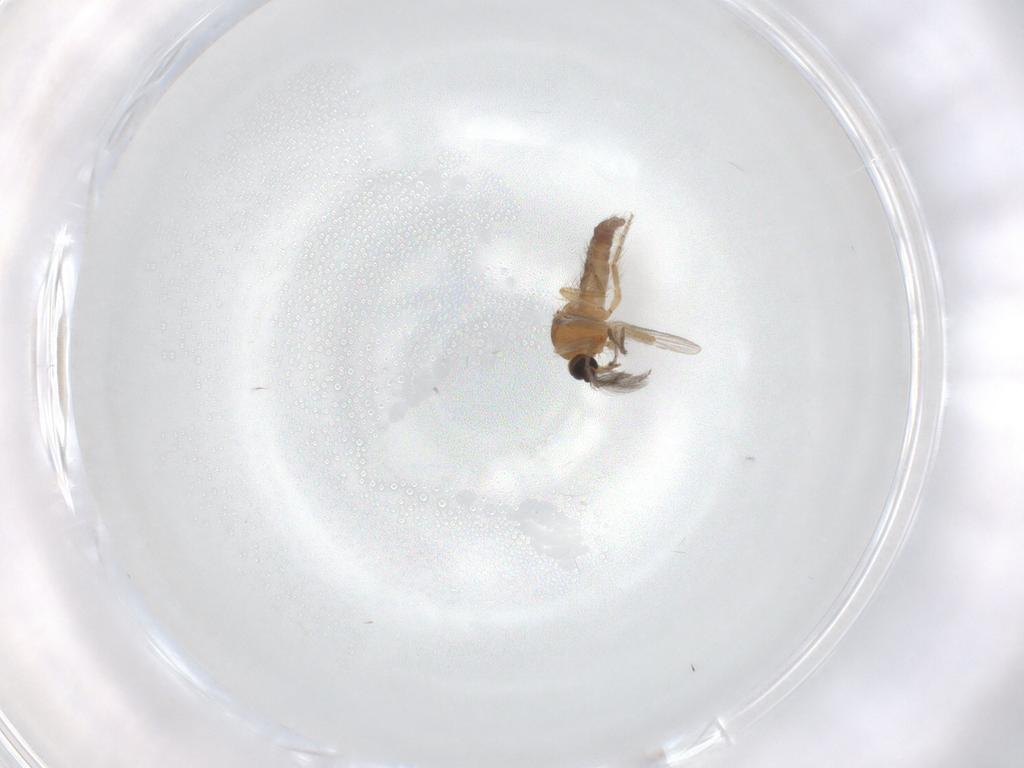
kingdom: Animalia
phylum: Arthropoda
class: Insecta
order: Diptera
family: Ceratopogonidae
